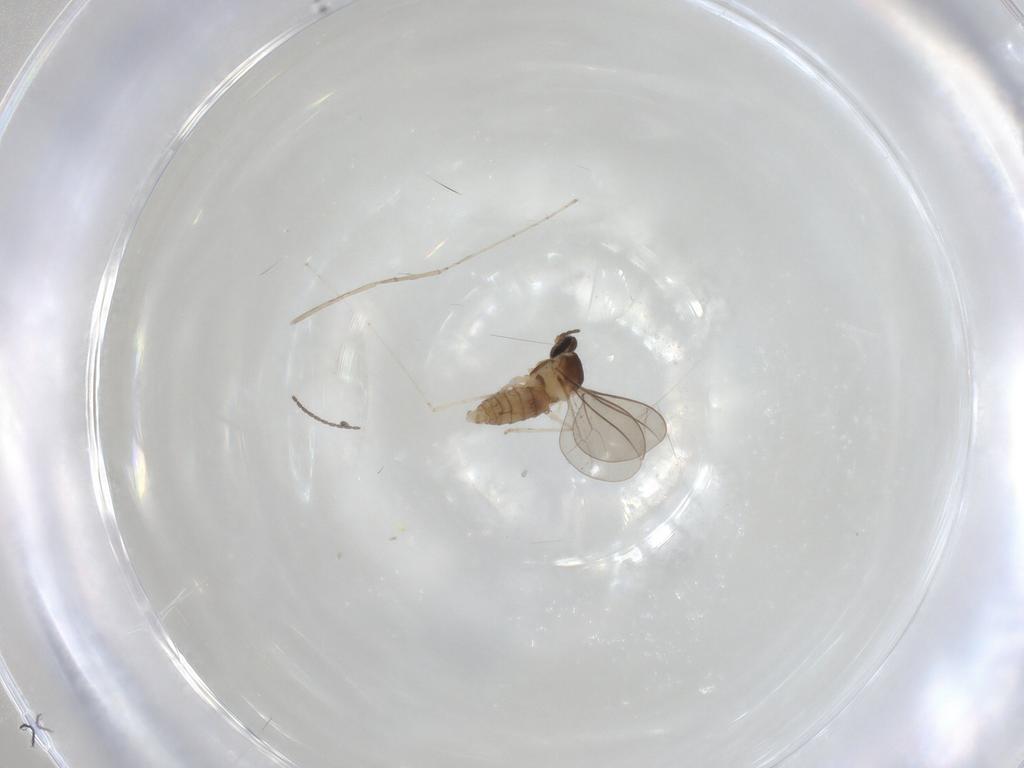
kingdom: Animalia
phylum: Arthropoda
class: Insecta
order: Diptera
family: Cecidomyiidae
